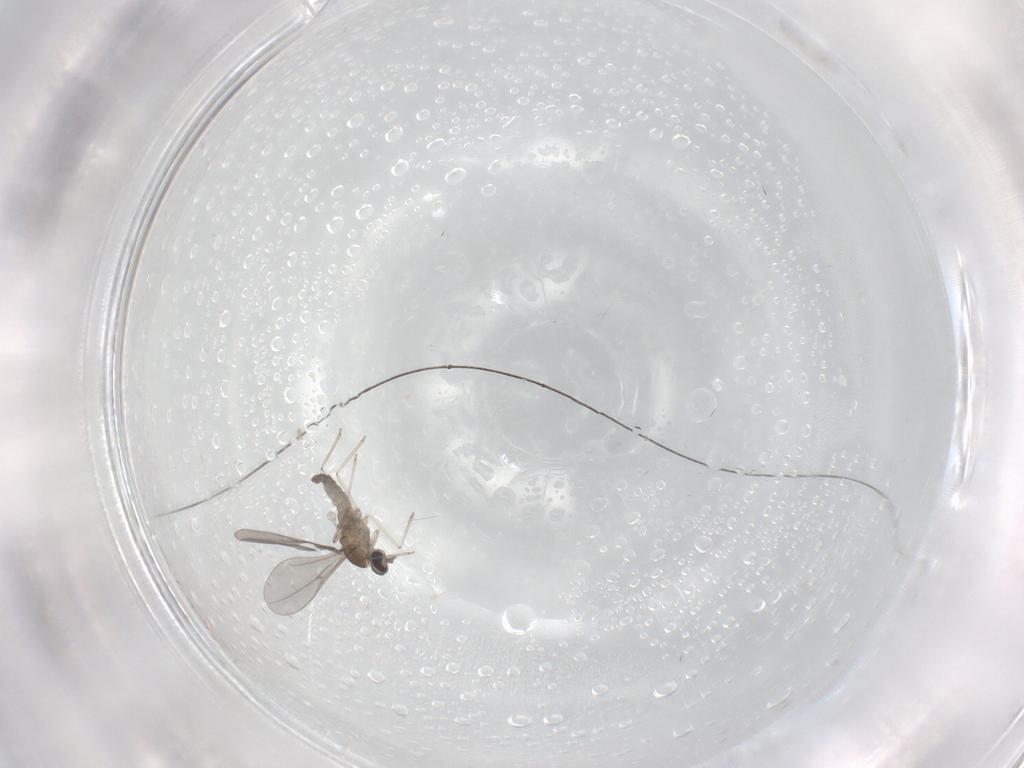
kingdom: Animalia
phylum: Arthropoda
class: Insecta
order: Diptera
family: Cecidomyiidae
